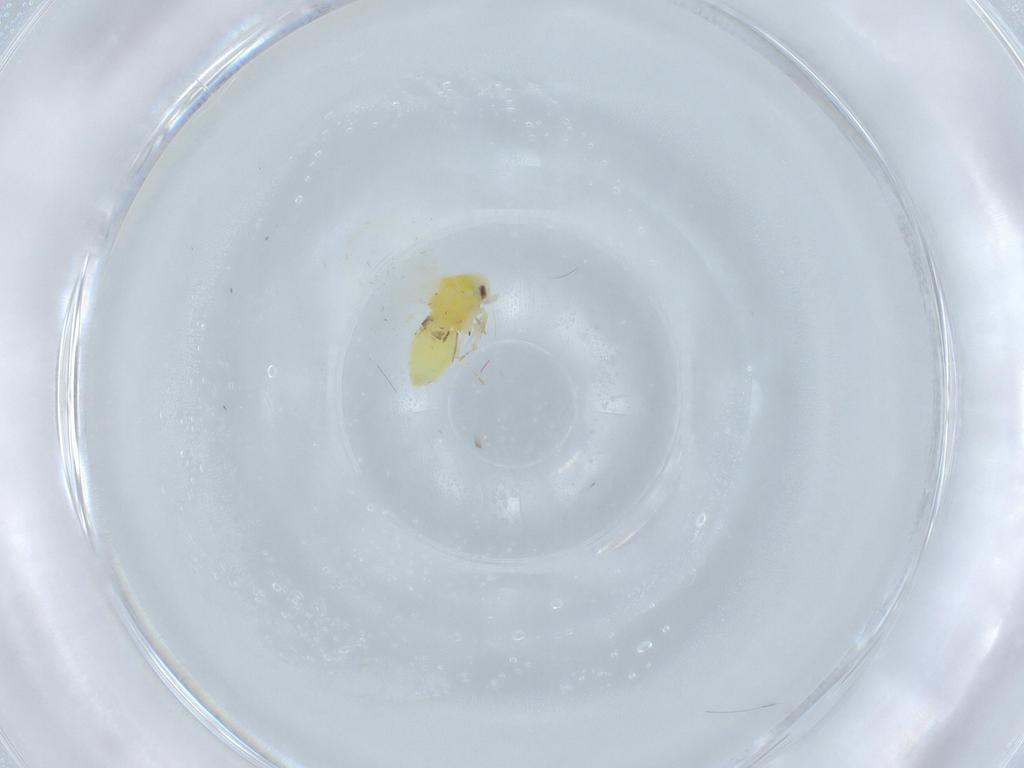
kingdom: Animalia
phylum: Arthropoda
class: Insecta
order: Hemiptera
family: Aleyrodidae
